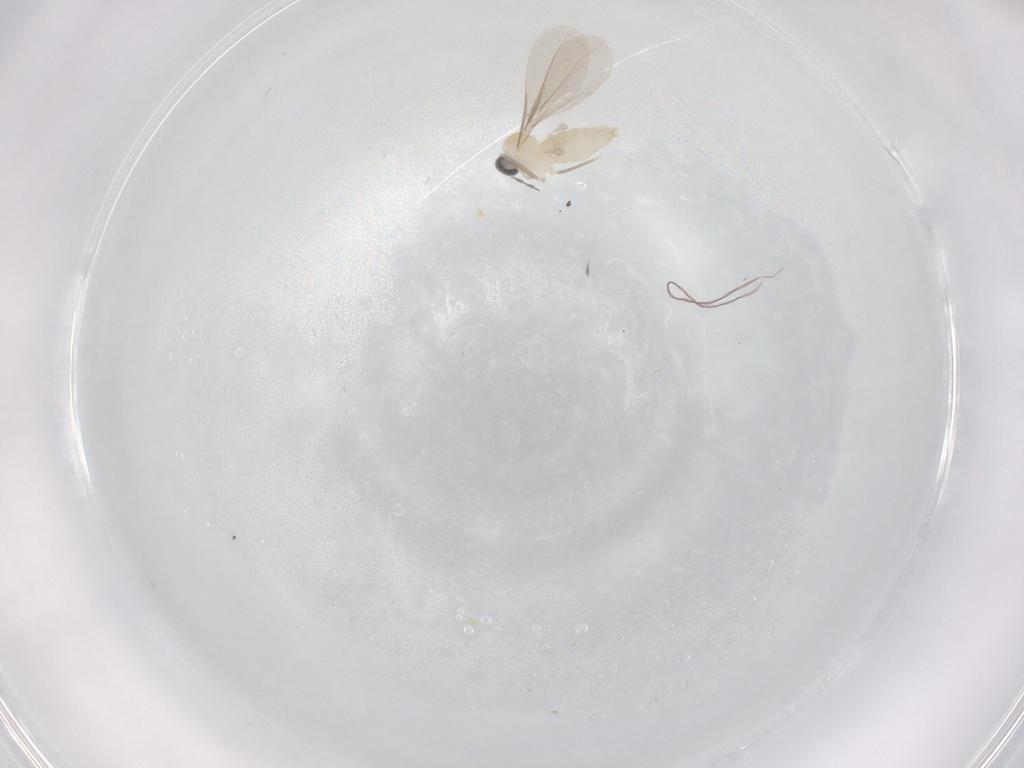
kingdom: Animalia
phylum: Arthropoda
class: Insecta
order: Diptera
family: Cecidomyiidae
